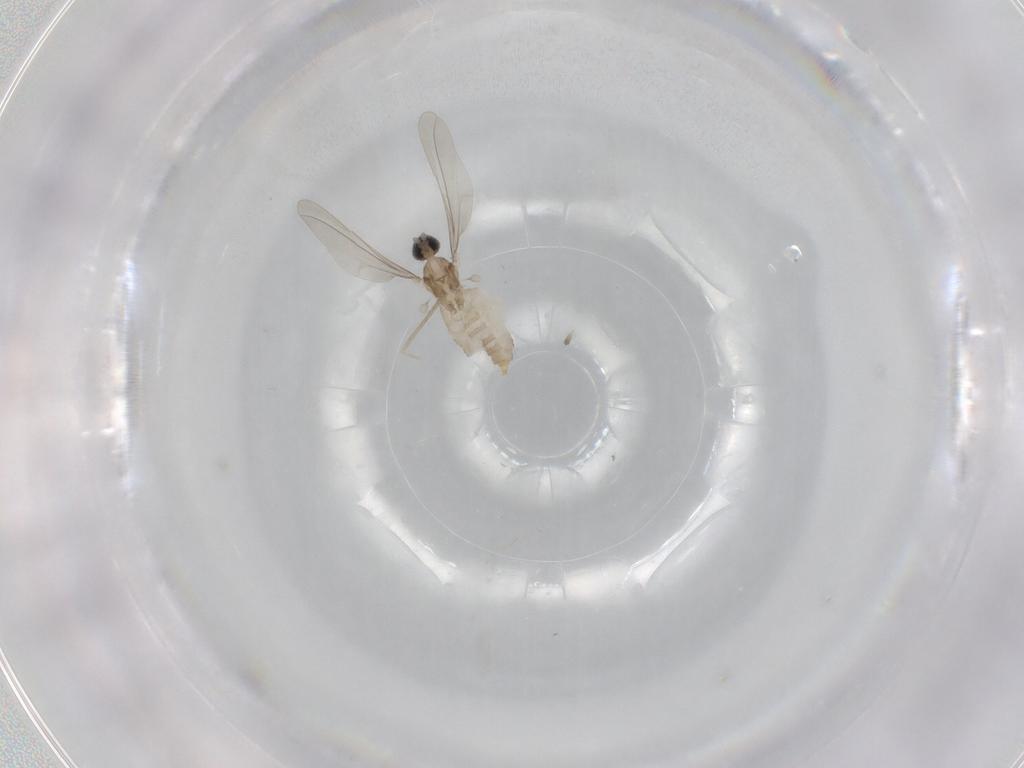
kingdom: Animalia
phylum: Arthropoda
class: Insecta
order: Diptera
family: Cecidomyiidae
